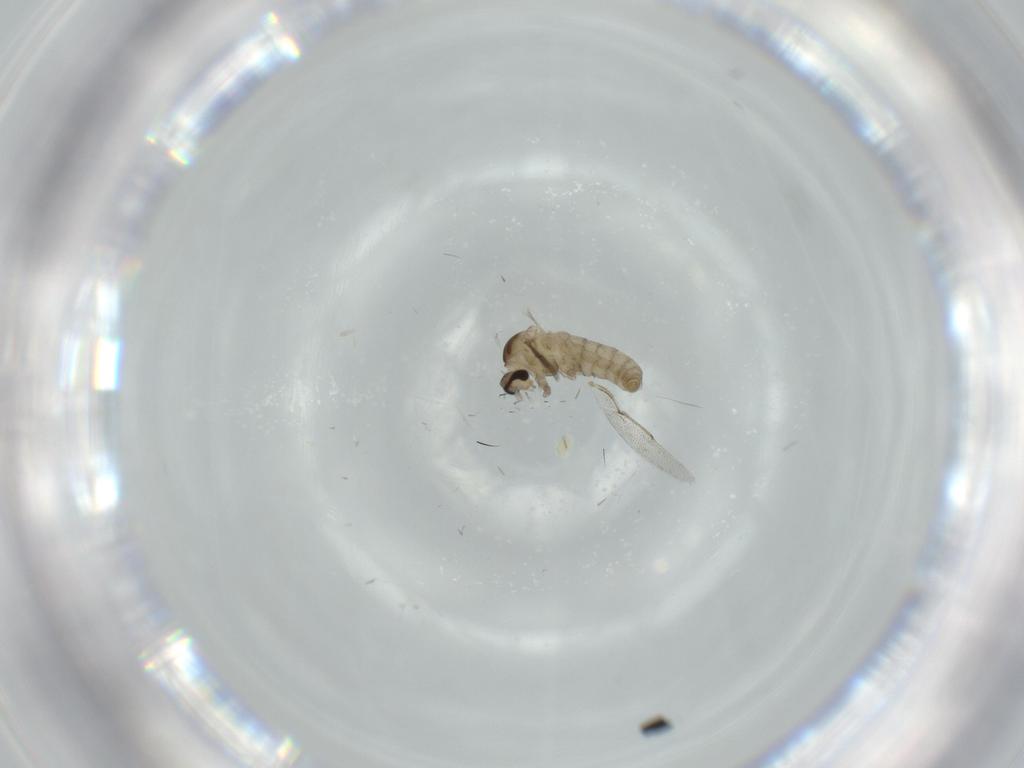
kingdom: Animalia
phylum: Arthropoda
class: Insecta
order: Diptera
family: Cecidomyiidae
